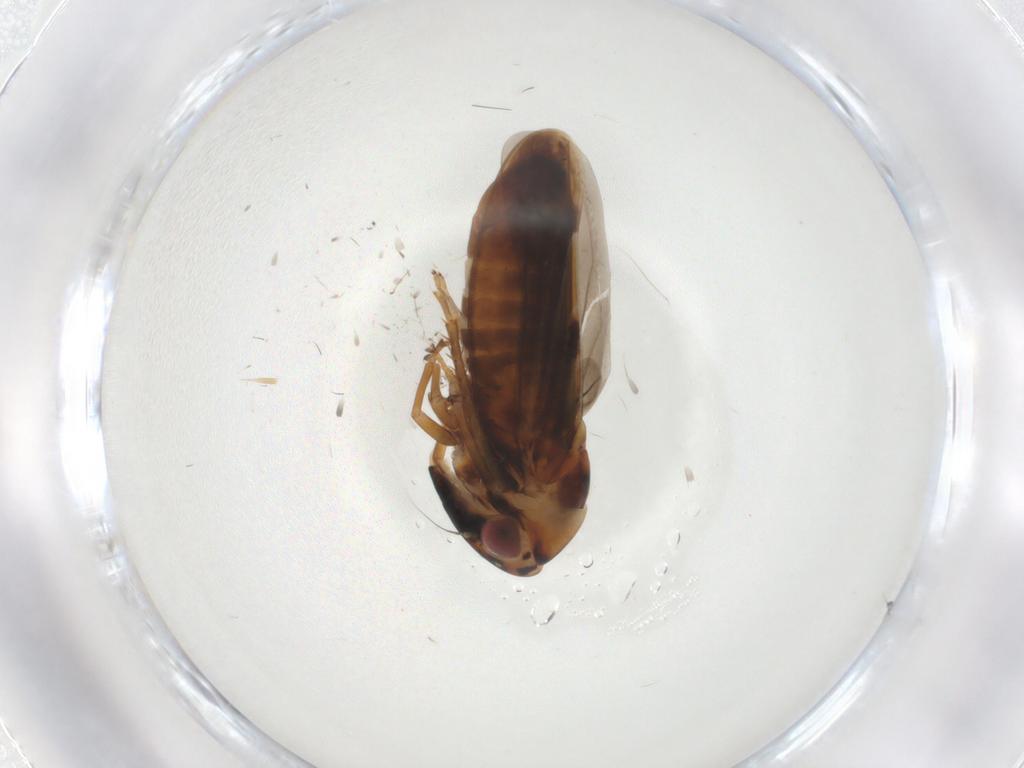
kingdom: Animalia
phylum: Arthropoda
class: Insecta
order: Hemiptera
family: Cicadellidae
